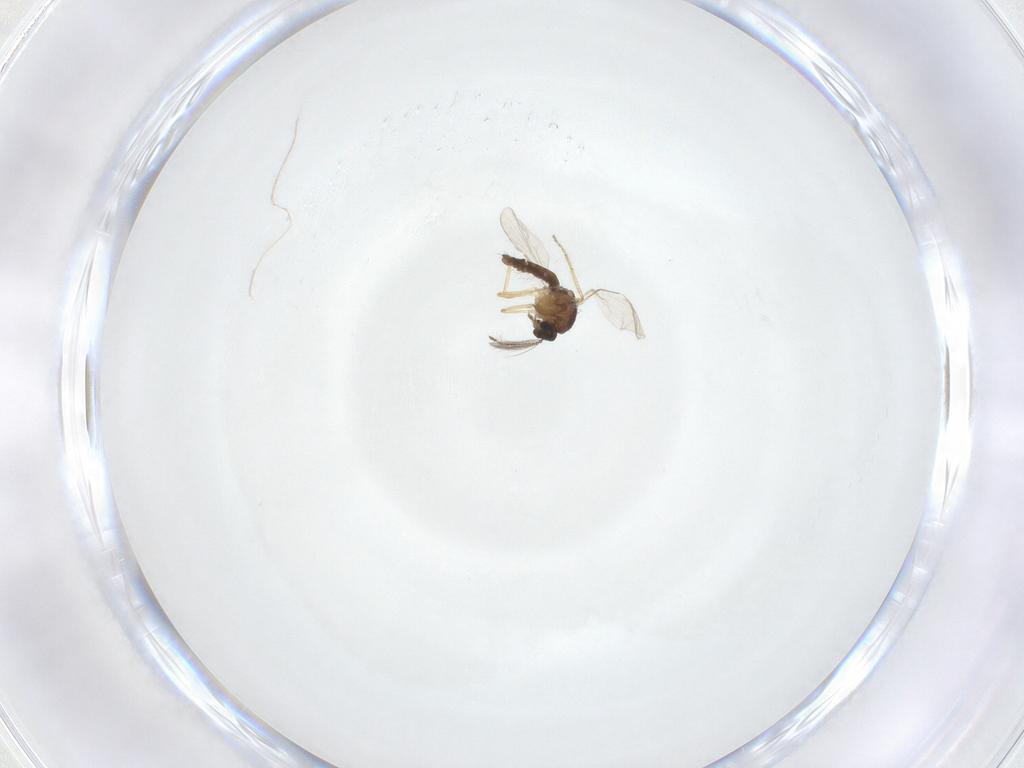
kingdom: Animalia
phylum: Arthropoda
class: Insecta
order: Diptera
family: Ceratopogonidae
